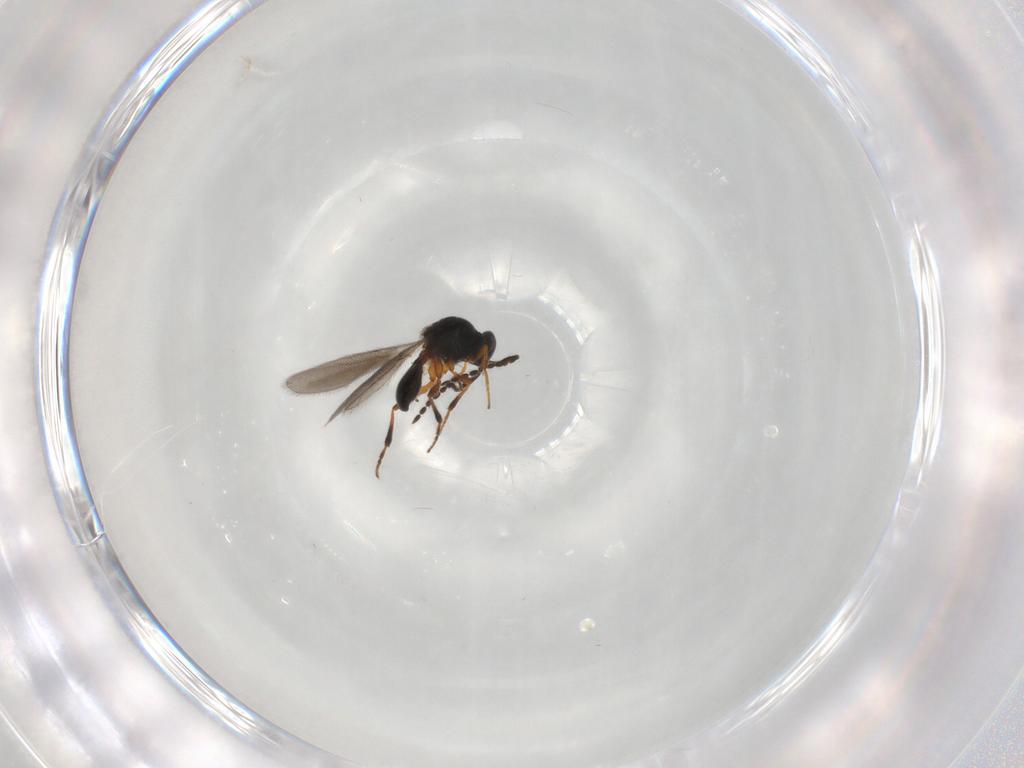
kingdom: Animalia
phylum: Arthropoda
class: Insecta
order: Hymenoptera
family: Platygastridae
